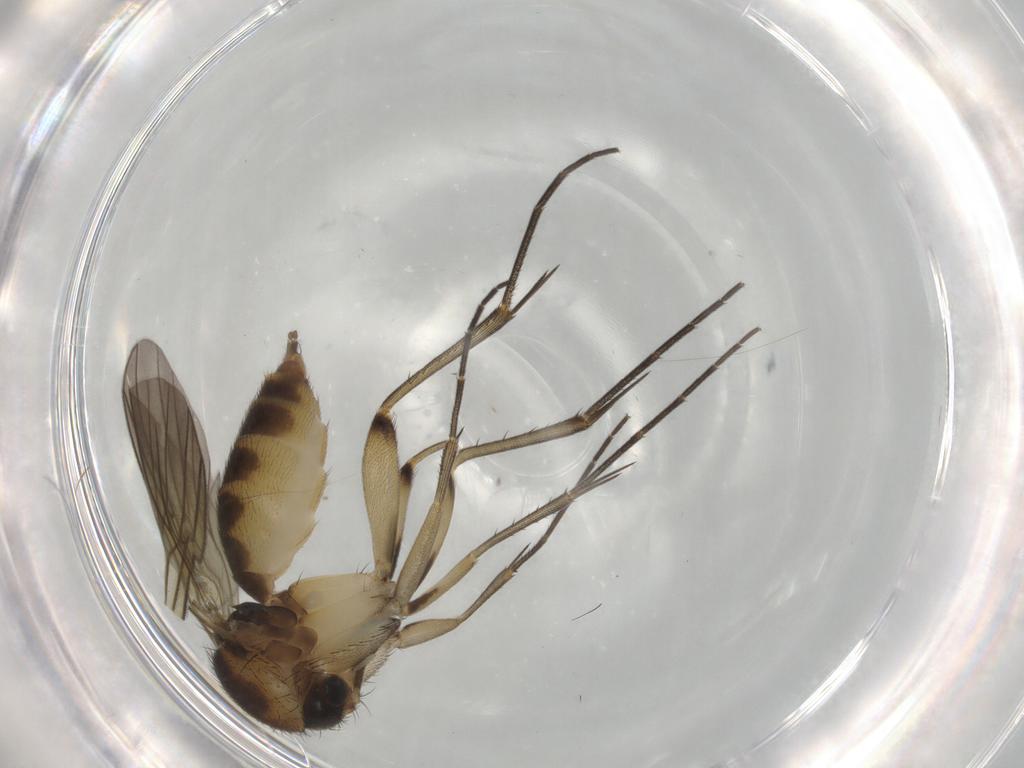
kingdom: Animalia
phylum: Arthropoda
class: Insecta
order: Diptera
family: Mycetophilidae
